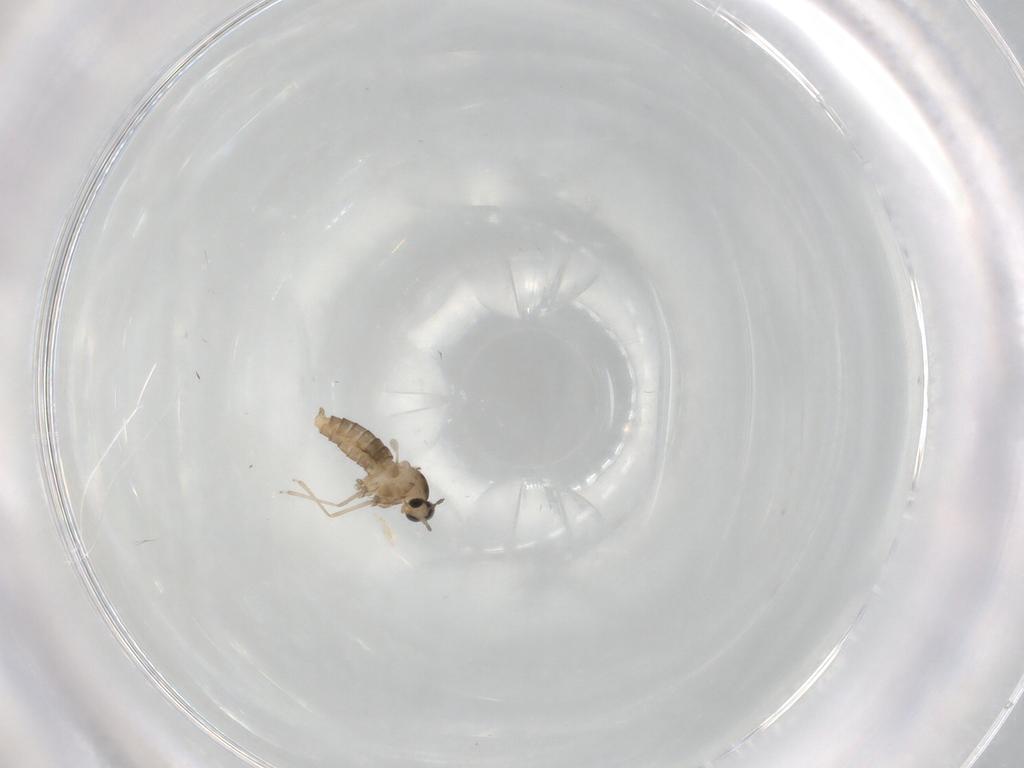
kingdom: Animalia
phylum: Arthropoda
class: Insecta
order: Diptera
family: Cecidomyiidae
